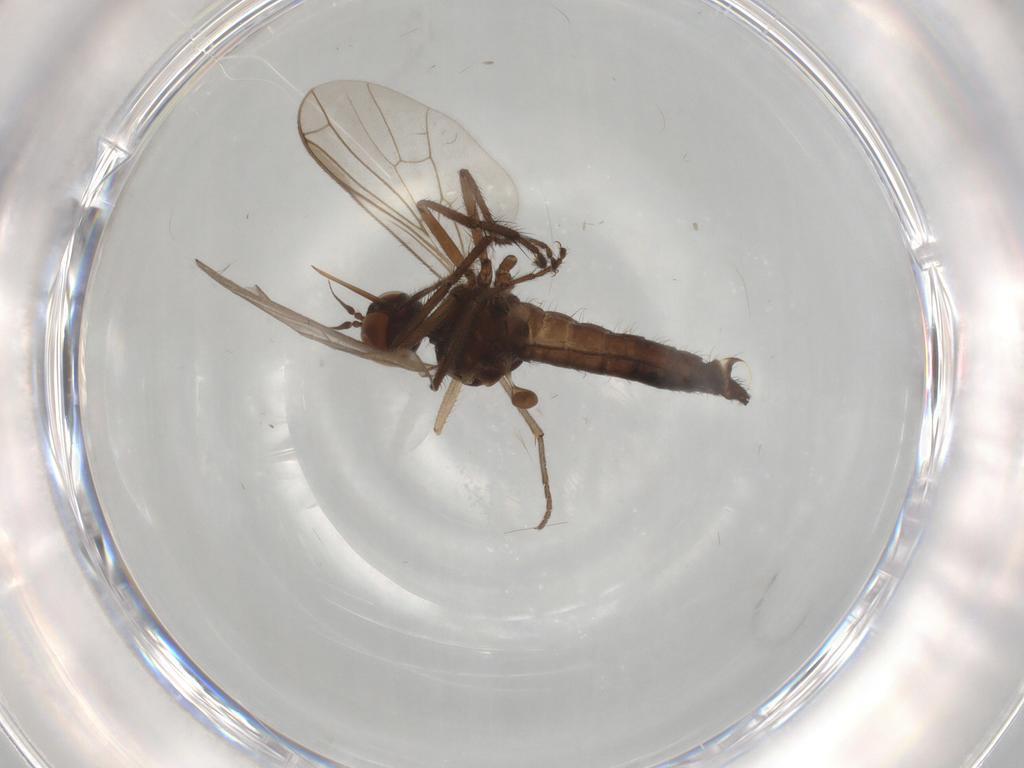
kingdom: Animalia
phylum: Arthropoda
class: Insecta
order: Diptera
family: Empididae
